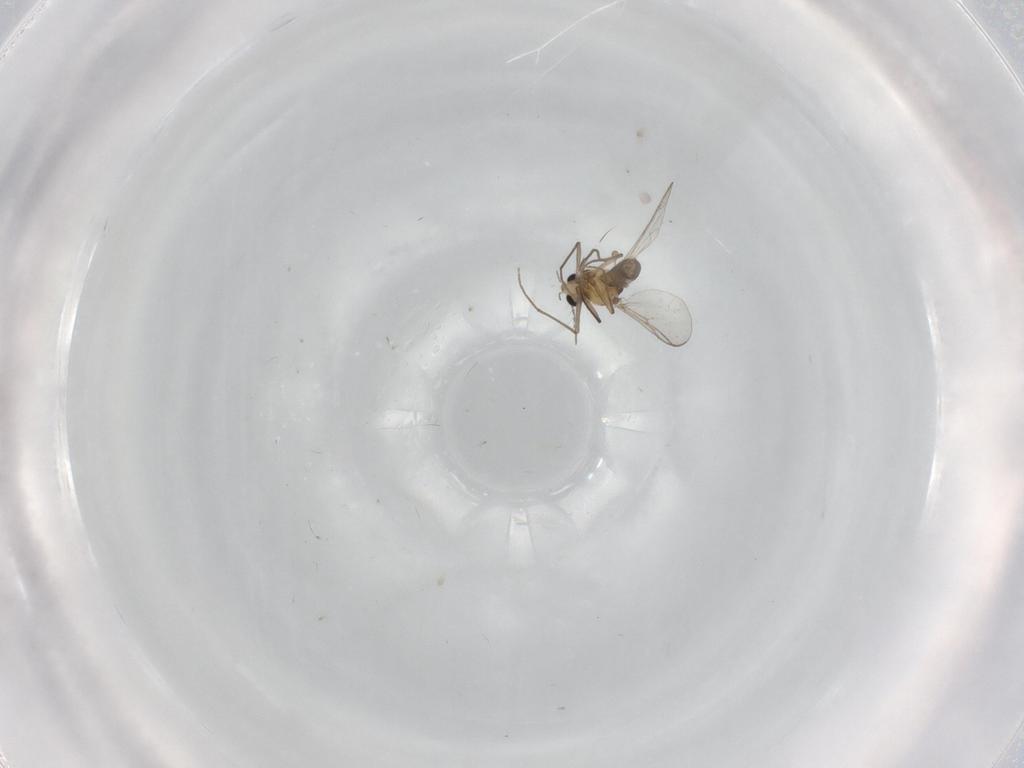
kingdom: Animalia
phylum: Arthropoda
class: Insecta
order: Diptera
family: Chironomidae
